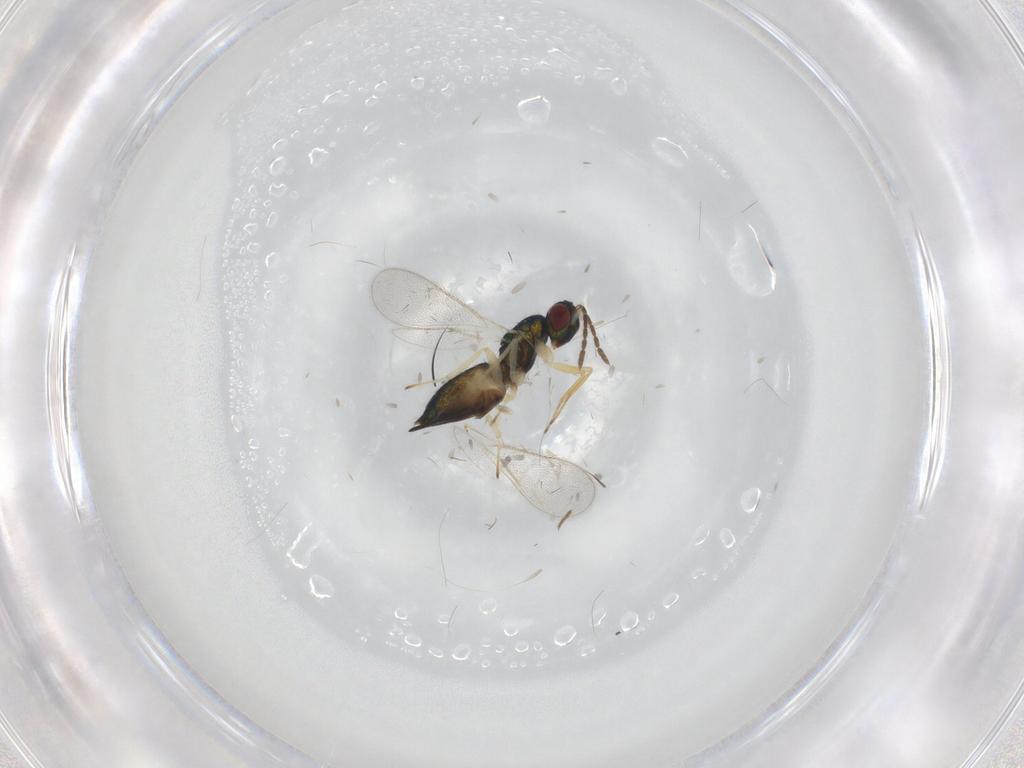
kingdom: Animalia
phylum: Arthropoda
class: Insecta
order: Hymenoptera
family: Eulophidae
